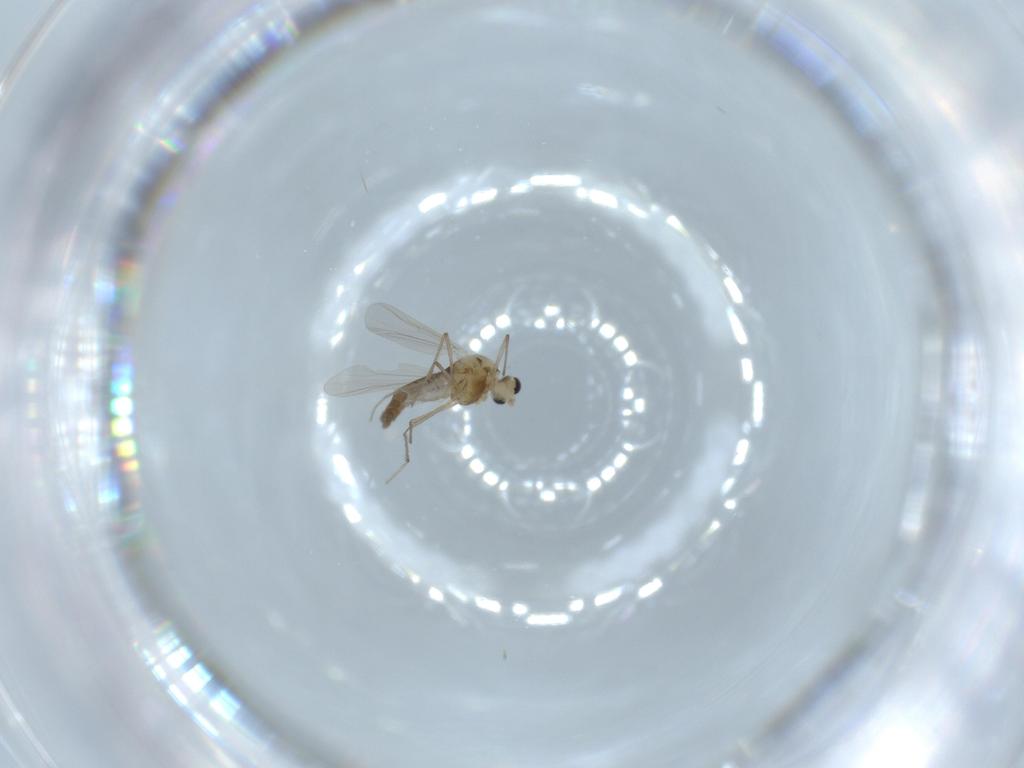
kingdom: Animalia
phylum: Arthropoda
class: Insecta
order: Diptera
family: Chironomidae
